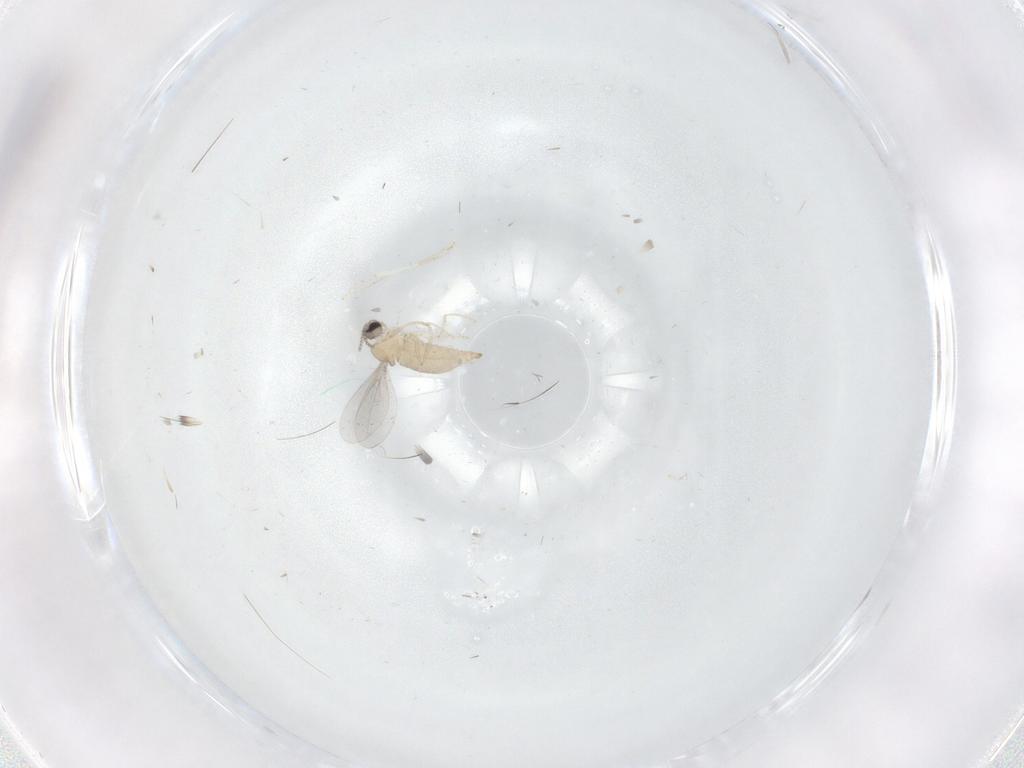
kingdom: Animalia
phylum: Arthropoda
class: Insecta
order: Diptera
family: Cecidomyiidae
